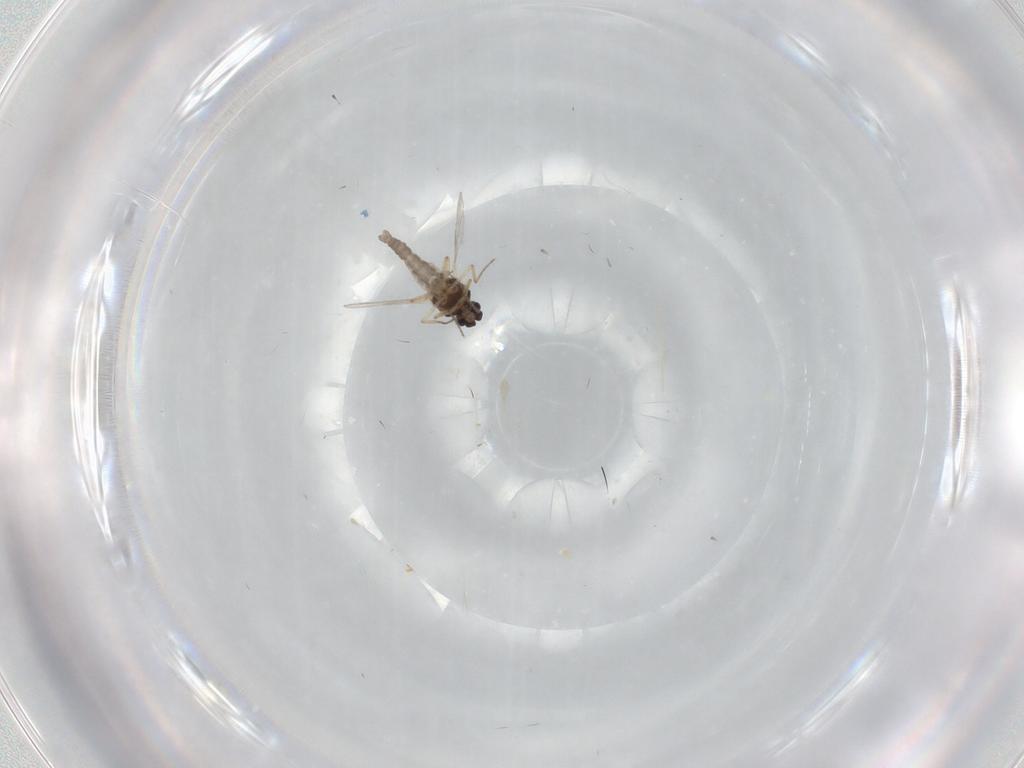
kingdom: Animalia
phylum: Arthropoda
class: Insecta
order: Diptera
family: Ceratopogonidae
